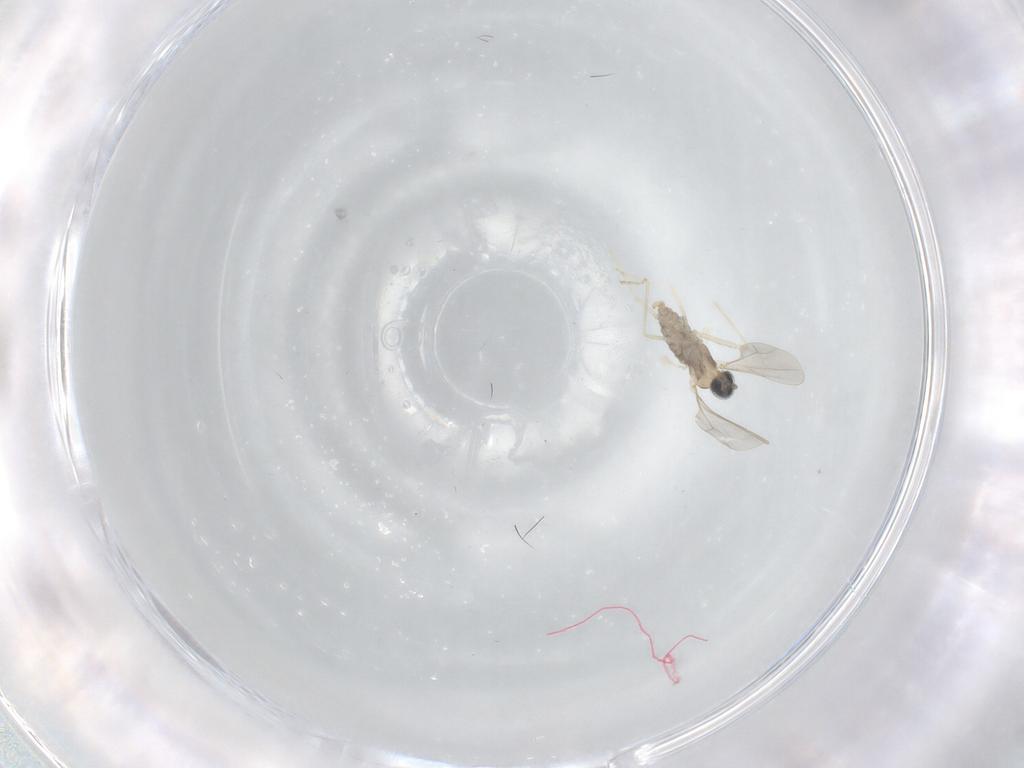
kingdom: Animalia
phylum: Arthropoda
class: Insecta
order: Diptera
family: Cecidomyiidae
